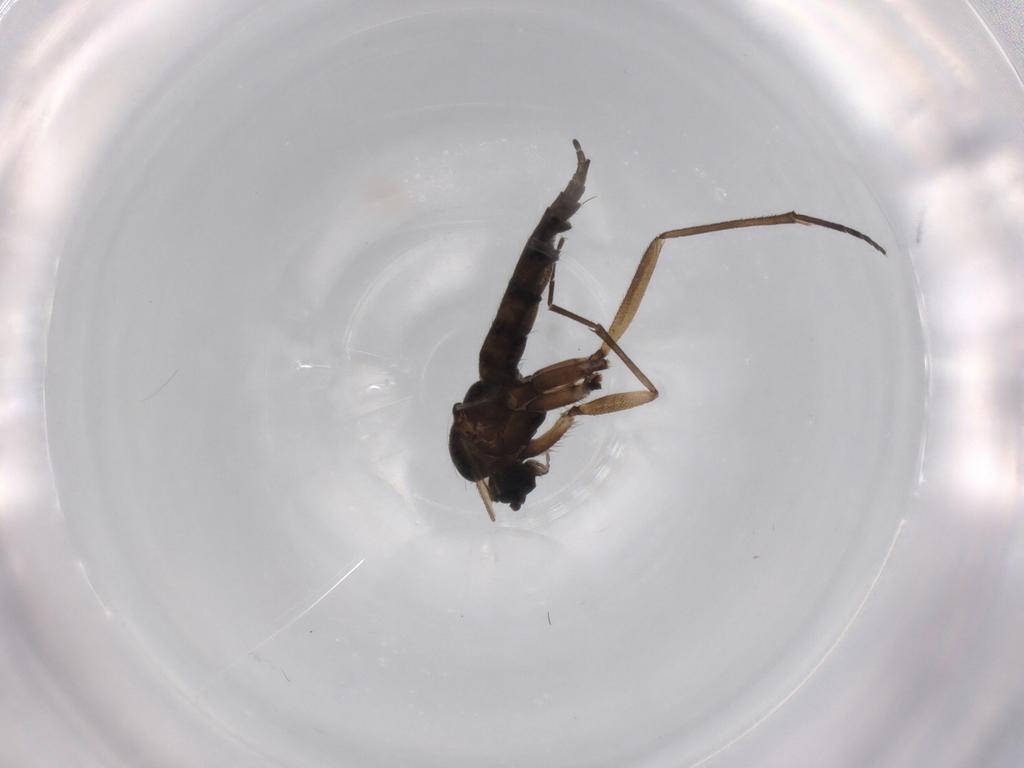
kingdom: Animalia
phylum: Arthropoda
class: Insecta
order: Diptera
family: Sciaridae
